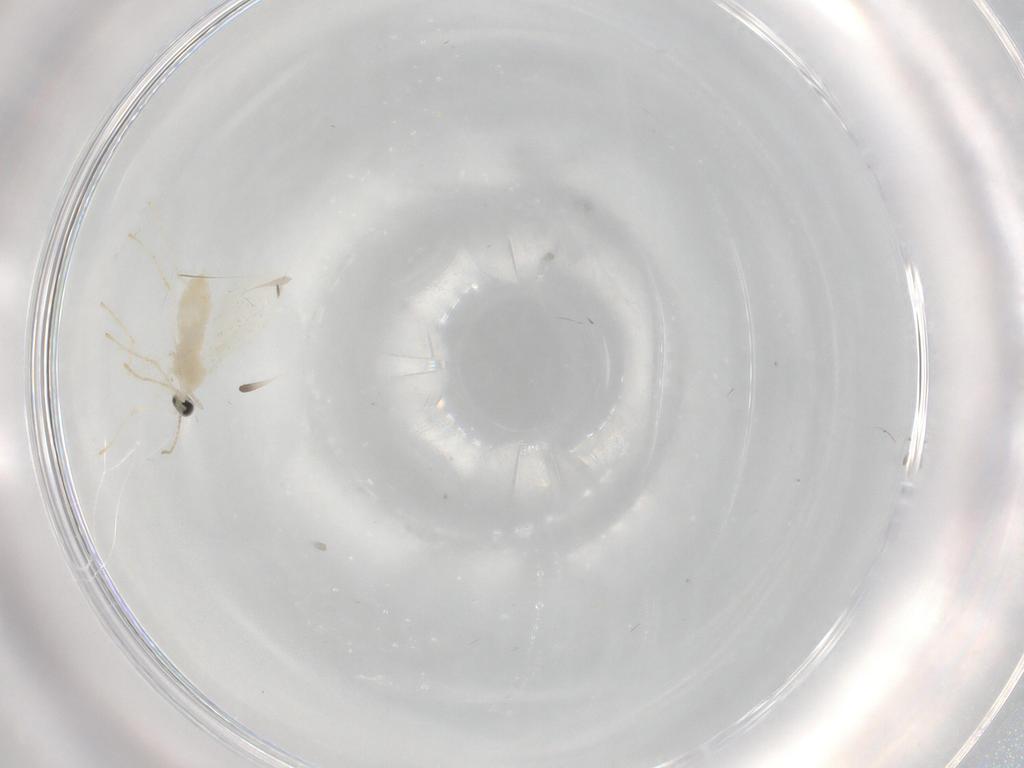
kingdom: Animalia
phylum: Arthropoda
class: Insecta
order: Diptera
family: Cecidomyiidae
